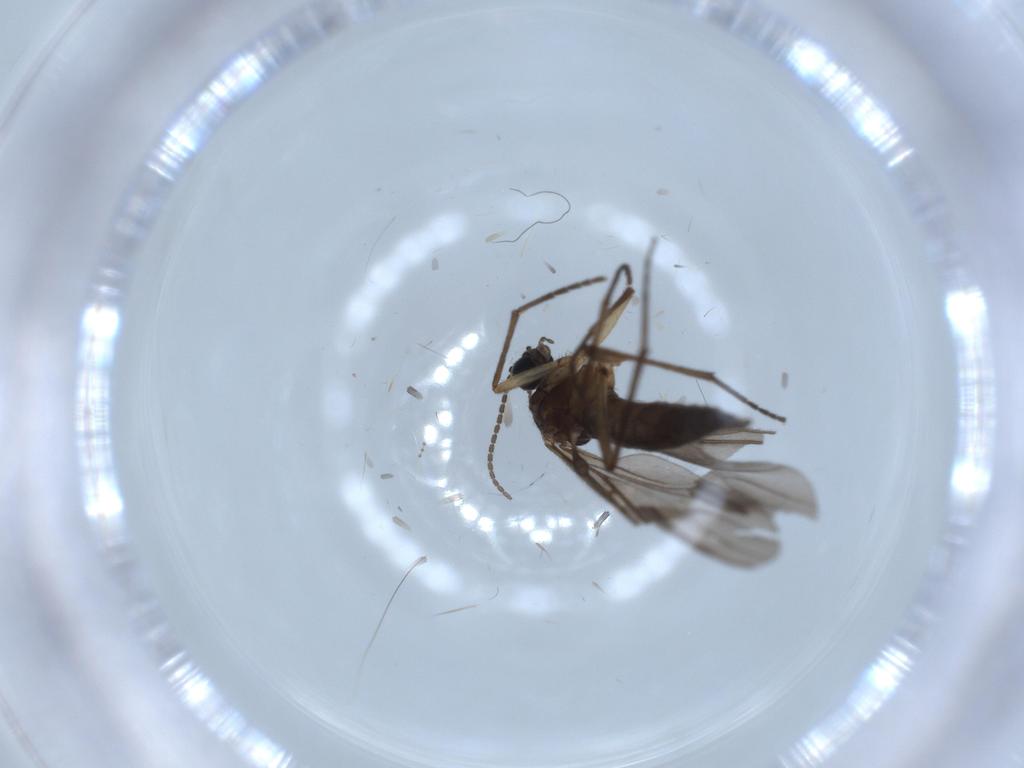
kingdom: Animalia
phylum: Arthropoda
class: Insecta
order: Diptera
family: Sciaridae
